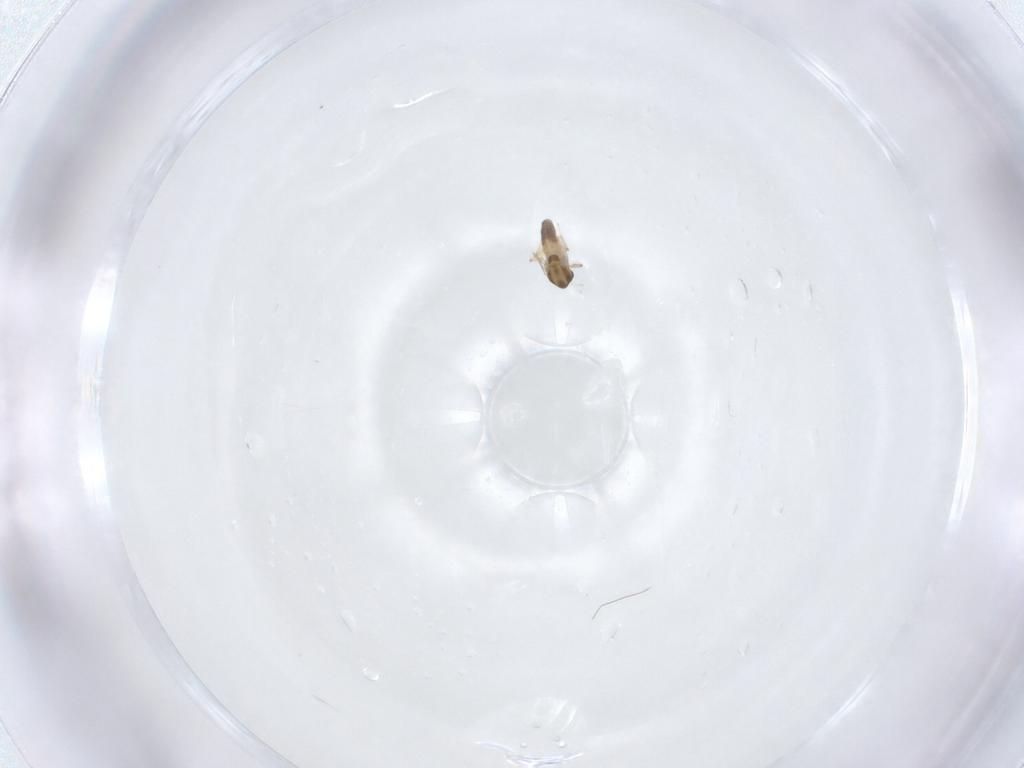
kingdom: Animalia
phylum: Arthropoda
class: Insecta
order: Diptera
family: Chironomidae
